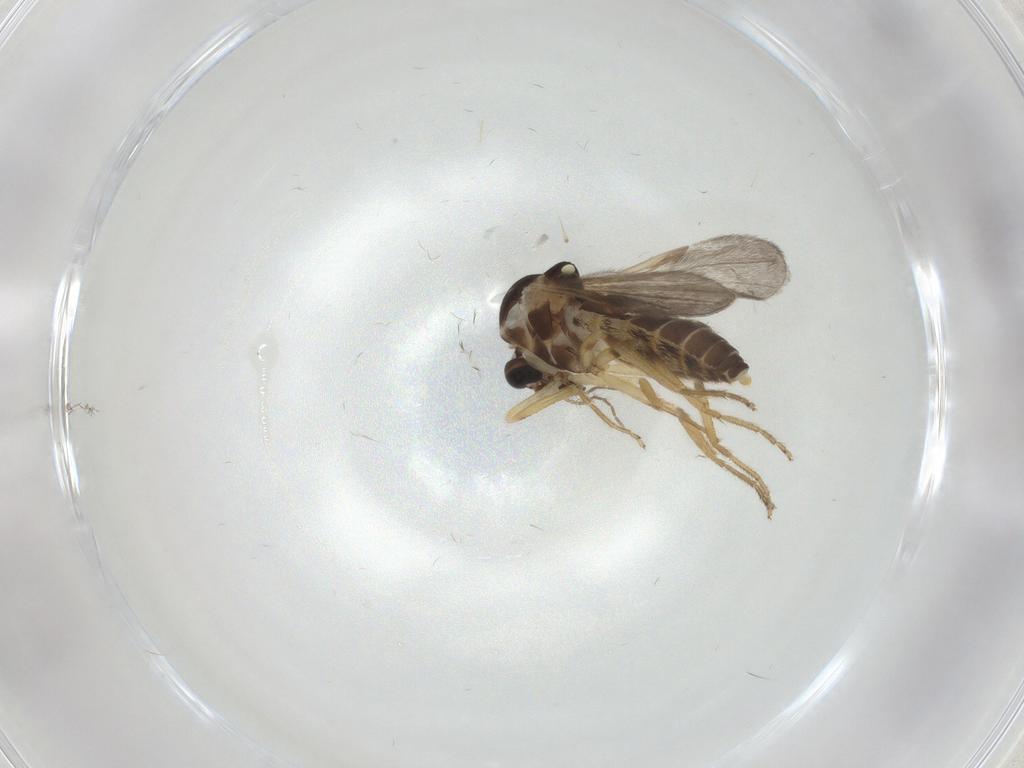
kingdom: Animalia
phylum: Arthropoda
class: Insecta
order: Diptera
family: Ceratopogonidae
